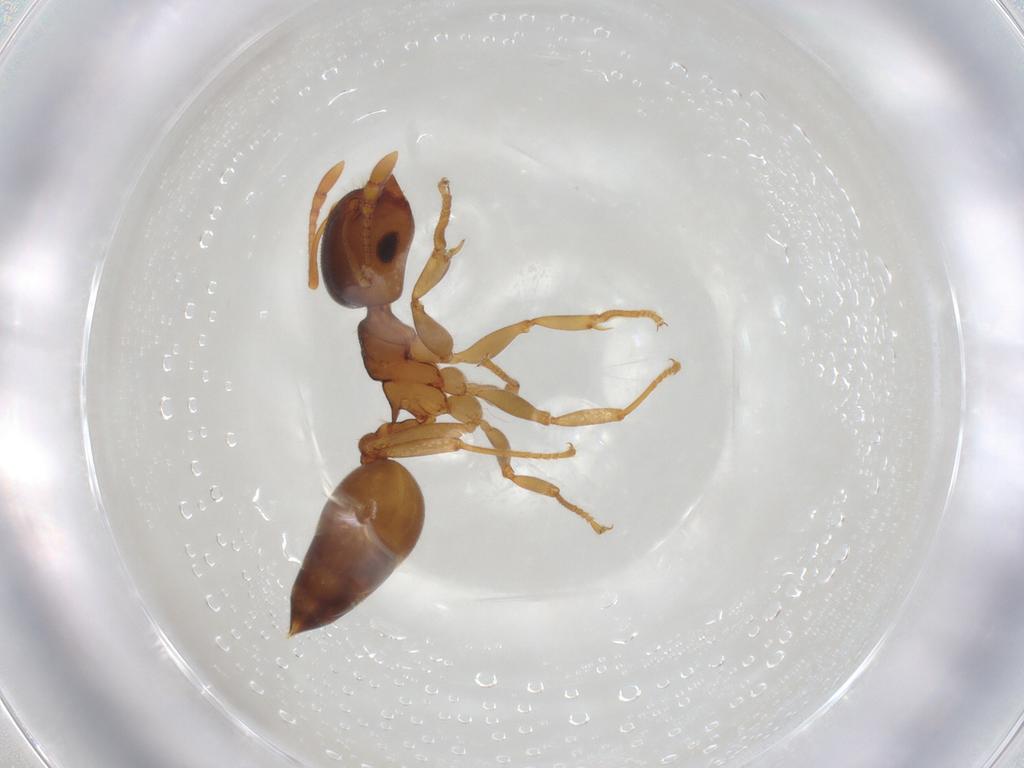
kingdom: Animalia
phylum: Arthropoda
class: Insecta
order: Hymenoptera
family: Formicidae
